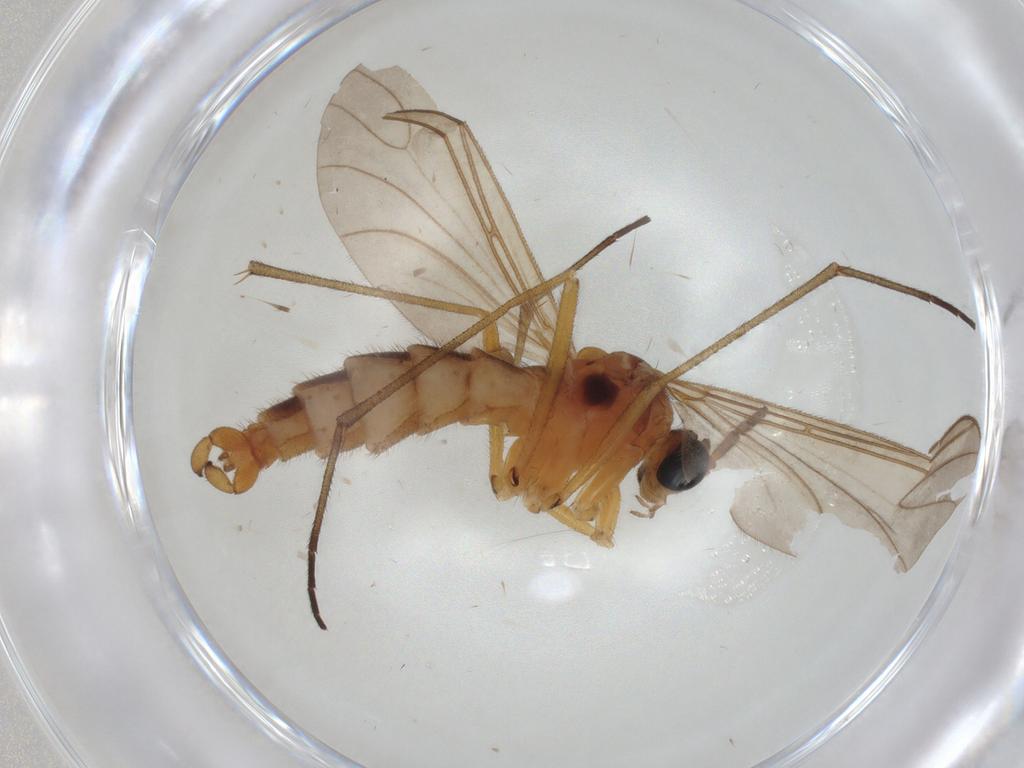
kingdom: Animalia
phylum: Arthropoda
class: Insecta
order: Diptera
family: Sciaridae
